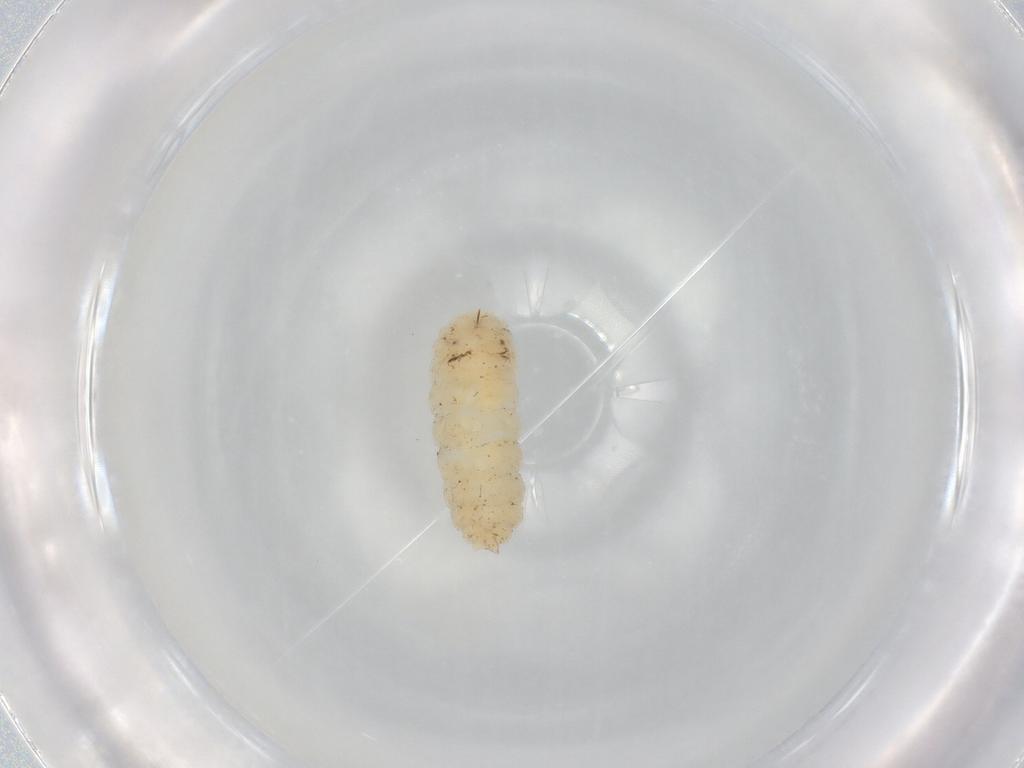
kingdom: Animalia
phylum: Arthropoda
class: Insecta
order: Diptera
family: Cecidomyiidae
